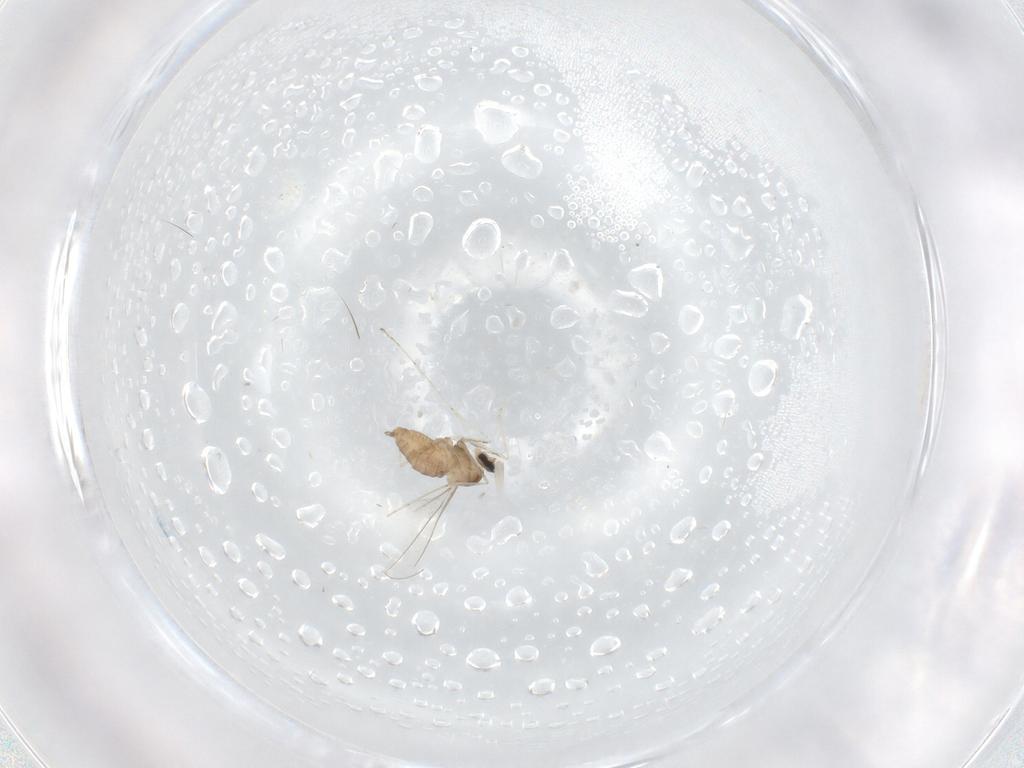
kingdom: Animalia
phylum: Arthropoda
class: Insecta
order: Diptera
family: Cecidomyiidae
